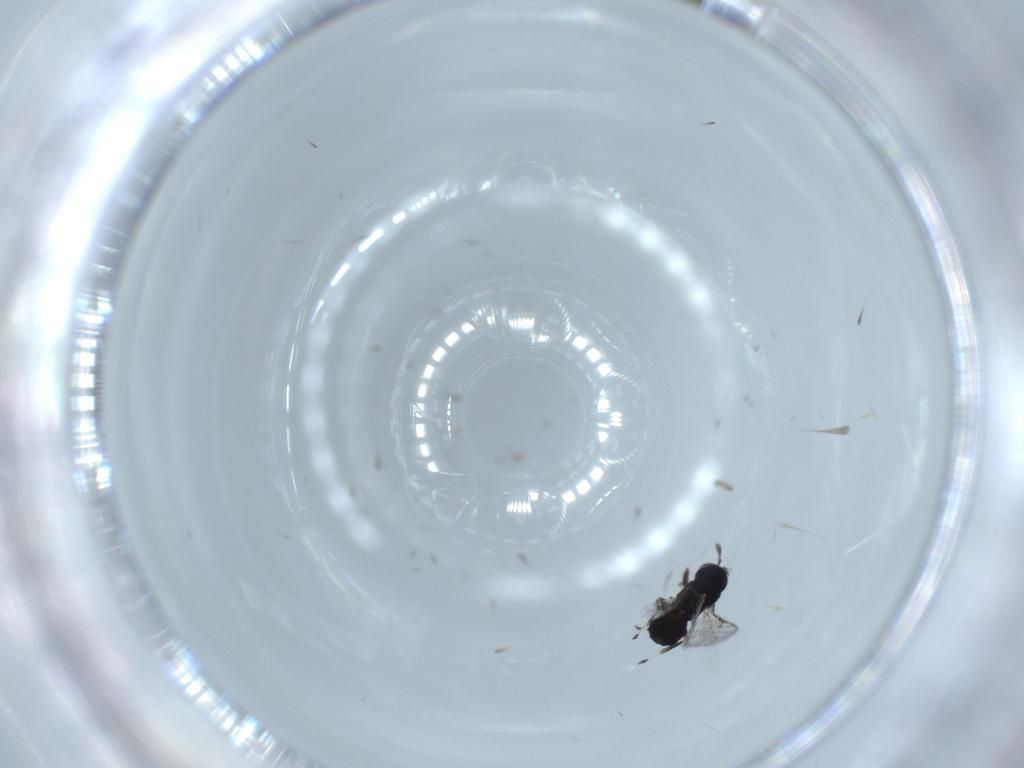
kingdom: Animalia
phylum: Arthropoda
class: Insecta
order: Hymenoptera
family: Eulophidae
